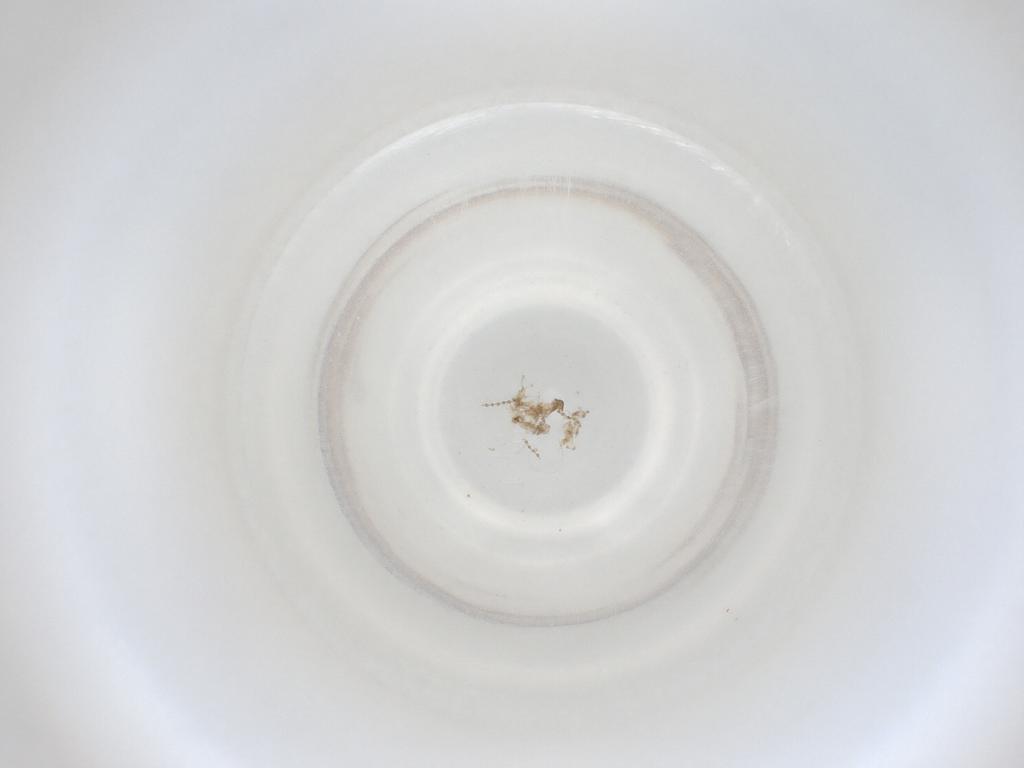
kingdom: Animalia
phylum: Arthropoda
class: Insecta
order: Diptera
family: Cecidomyiidae
